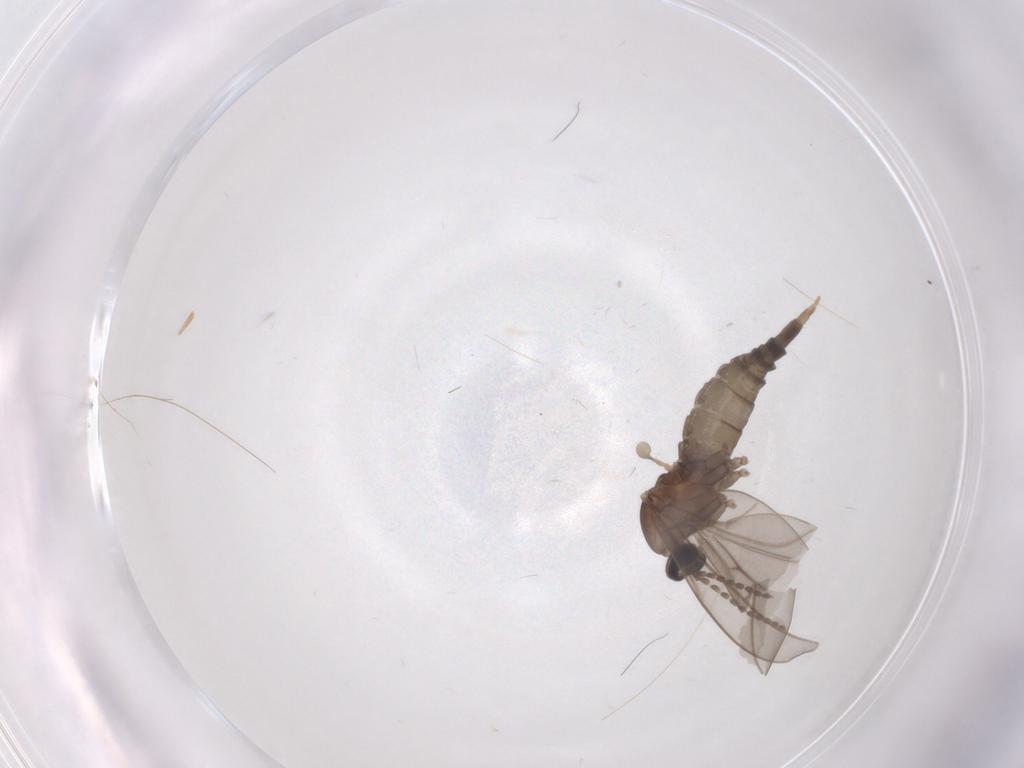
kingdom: Animalia
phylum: Arthropoda
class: Insecta
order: Diptera
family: Cecidomyiidae
